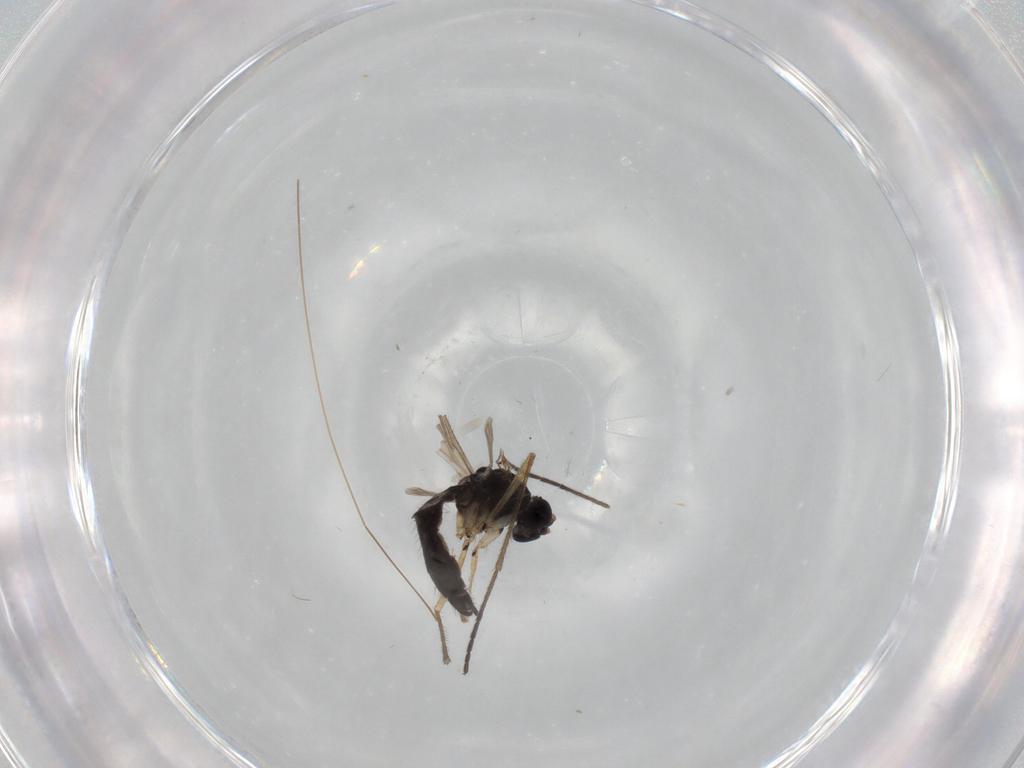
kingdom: Animalia
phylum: Arthropoda
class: Insecta
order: Diptera
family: Sciaridae
